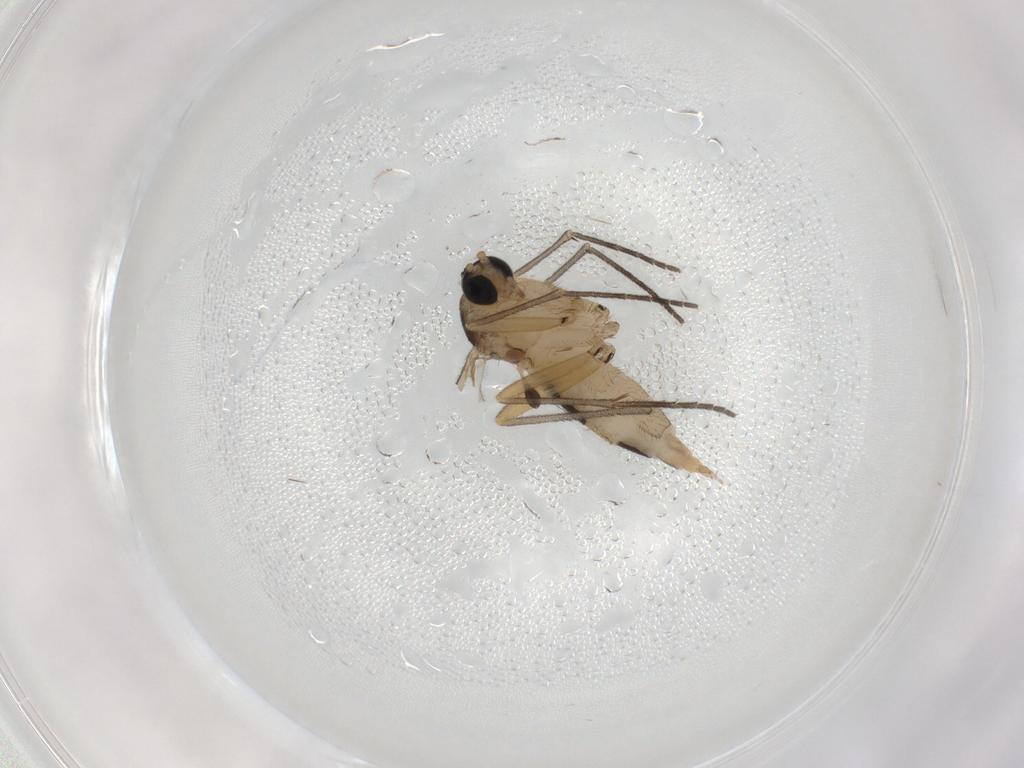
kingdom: Animalia
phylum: Arthropoda
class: Insecta
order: Diptera
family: Sciaridae
